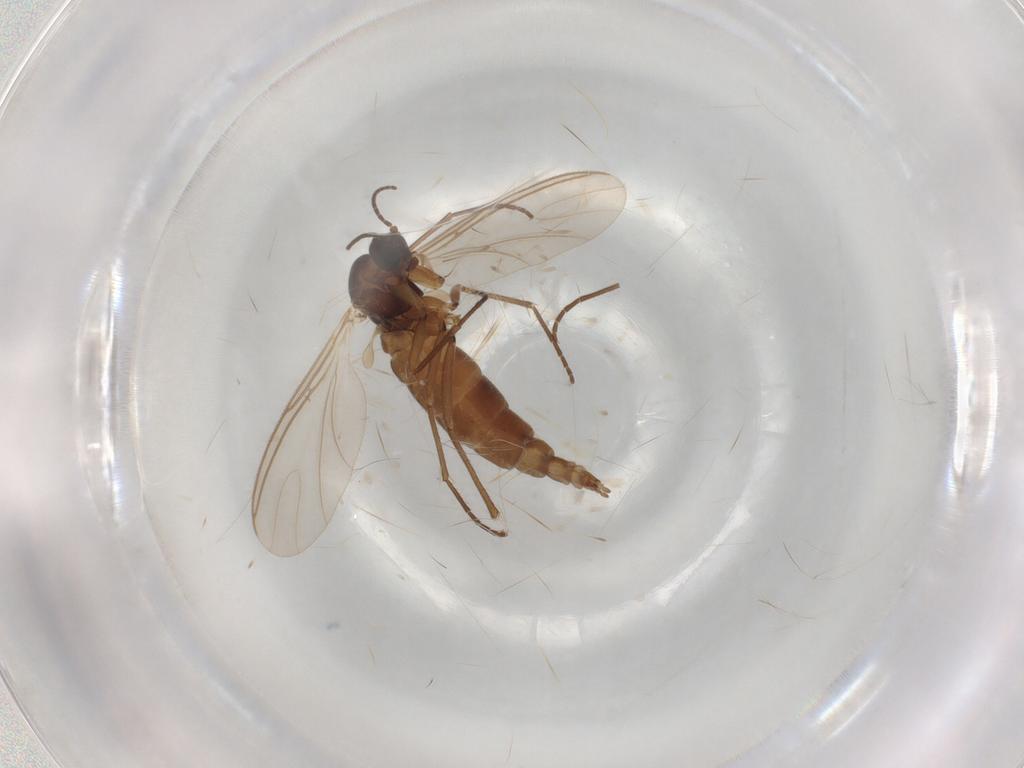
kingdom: Animalia
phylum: Arthropoda
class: Insecta
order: Diptera
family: Sciaridae
